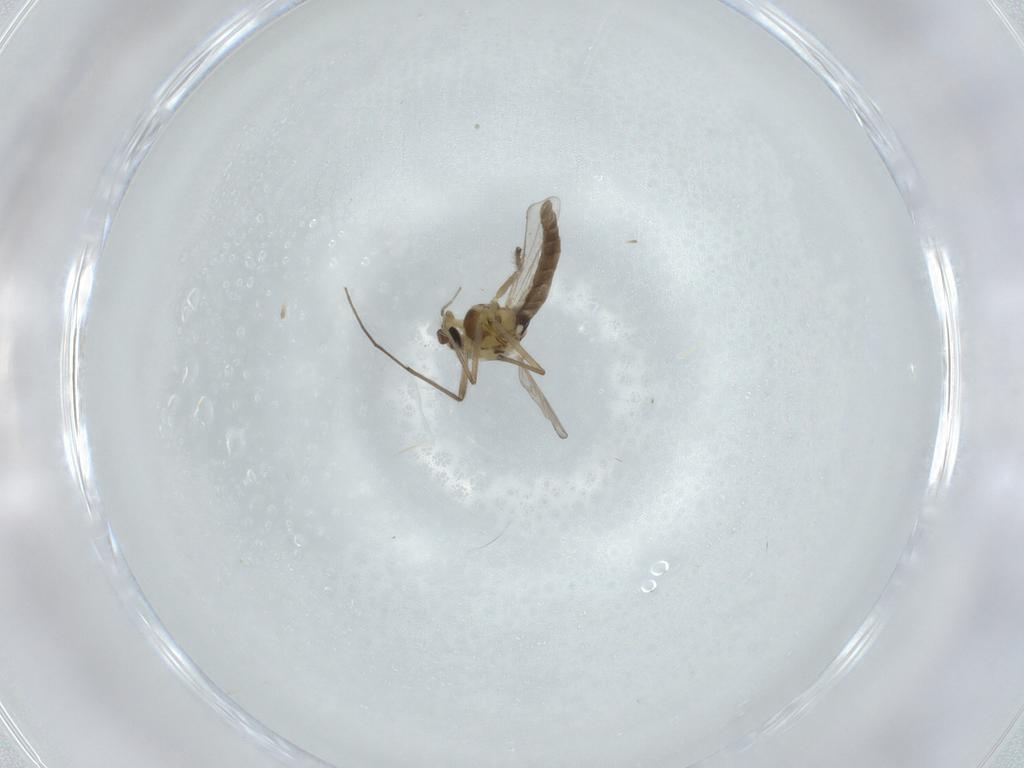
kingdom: Animalia
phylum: Arthropoda
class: Insecta
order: Diptera
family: Chironomidae
